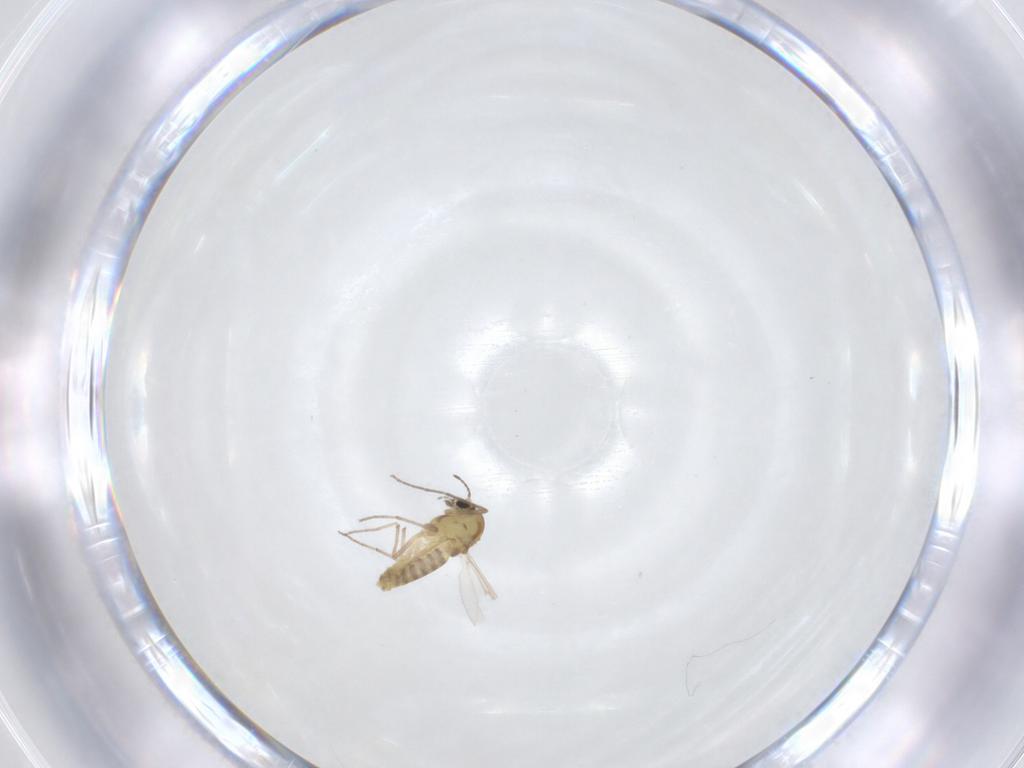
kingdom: Animalia
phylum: Arthropoda
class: Insecta
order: Diptera
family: Chironomidae
